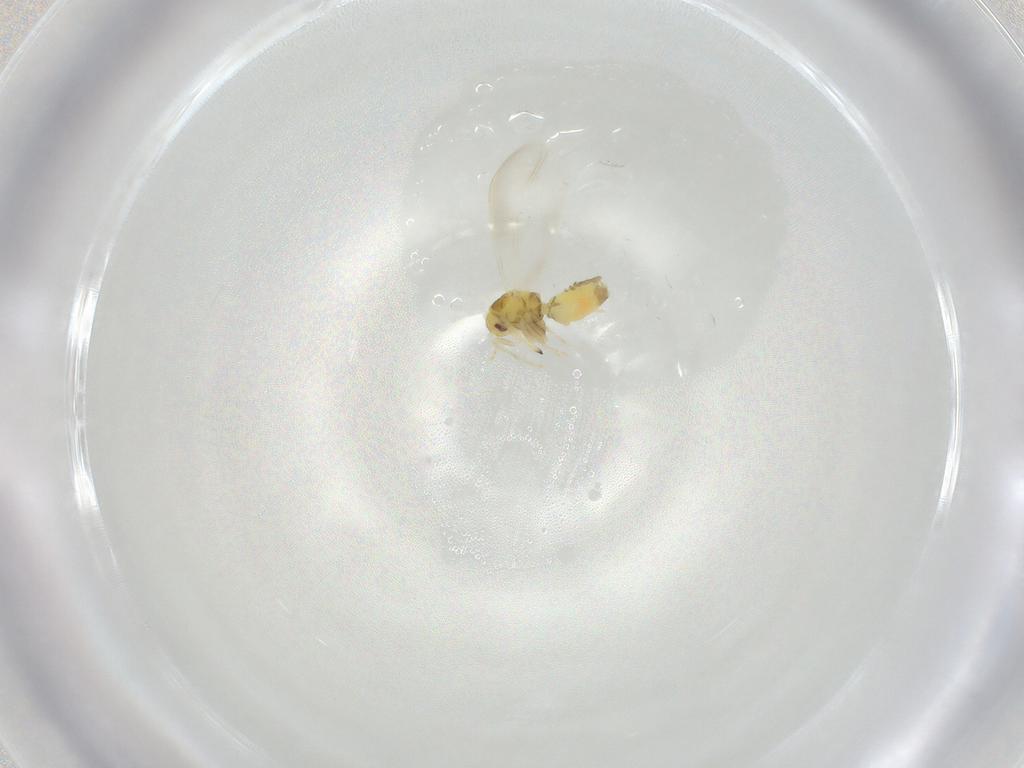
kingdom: Animalia
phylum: Arthropoda
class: Insecta
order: Hemiptera
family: Aleyrodidae
